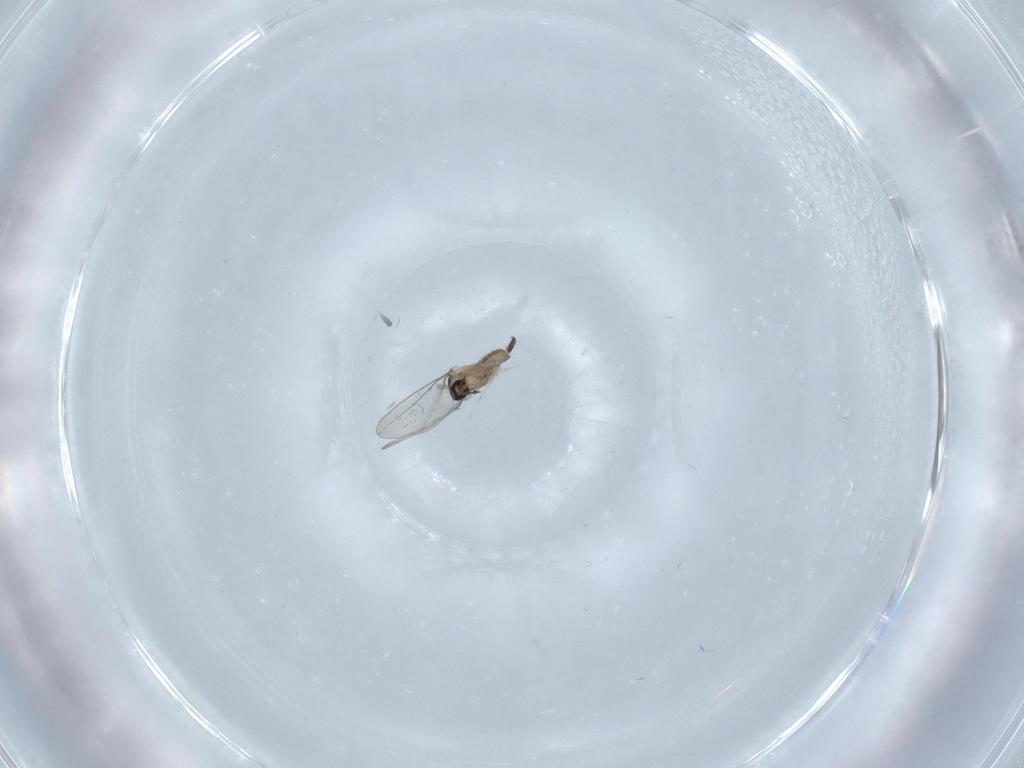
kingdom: Animalia
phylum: Arthropoda
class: Insecta
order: Diptera
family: Cecidomyiidae
